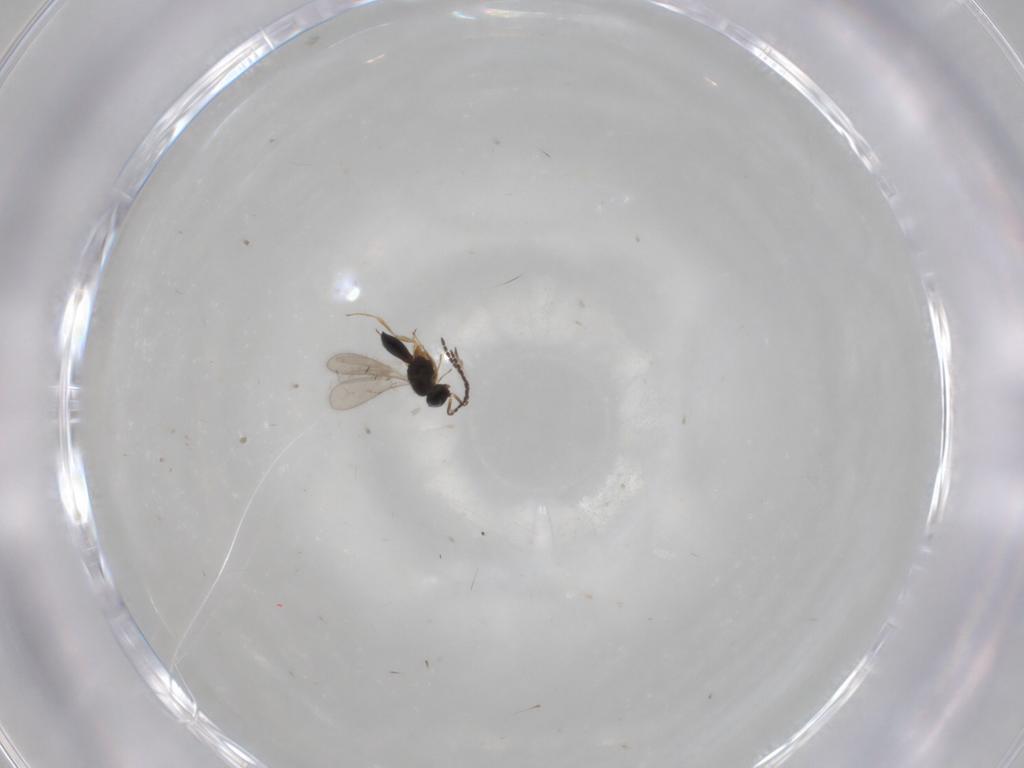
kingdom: Animalia
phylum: Arthropoda
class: Insecta
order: Hymenoptera
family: Scelionidae
